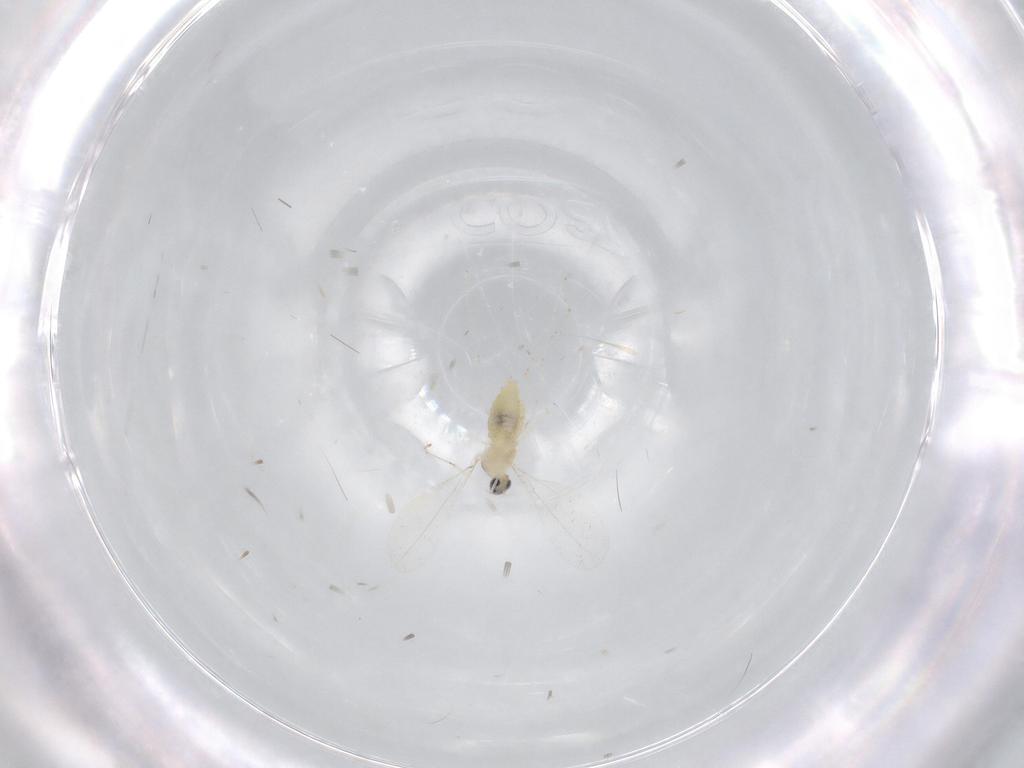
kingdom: Animalia
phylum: Arthropoda
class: Insecta
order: Diptera
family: Cecidomyiidae
